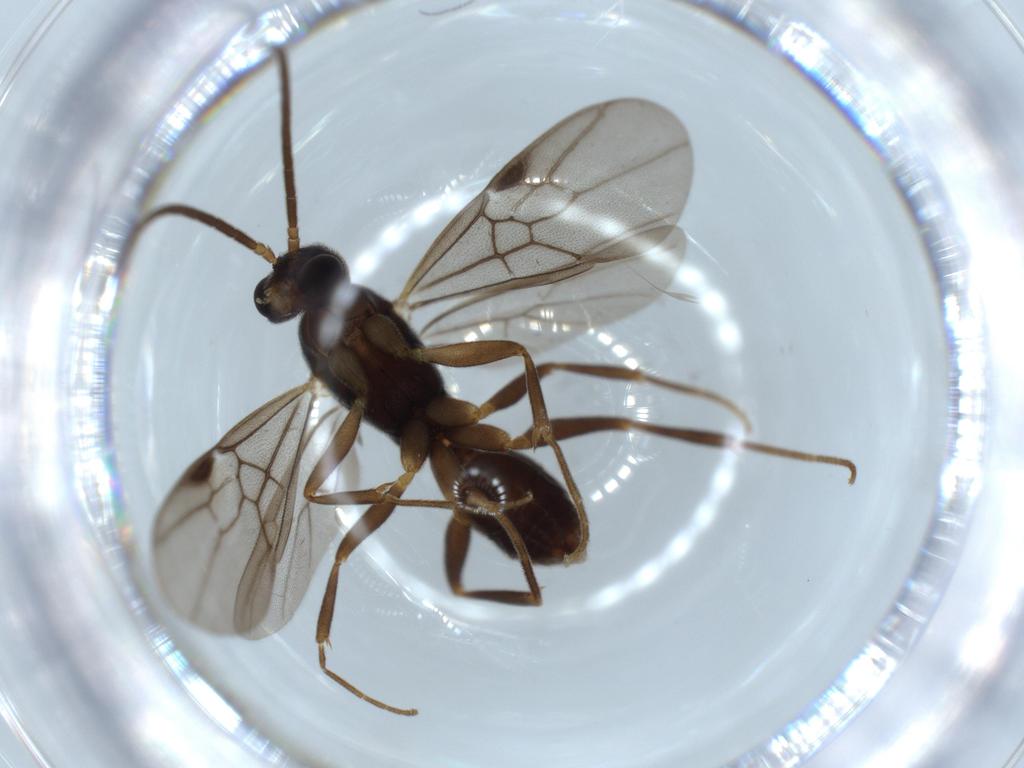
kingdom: Animalia
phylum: Arthropoda
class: Insecta
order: Hymenoptera
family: Formicidae
